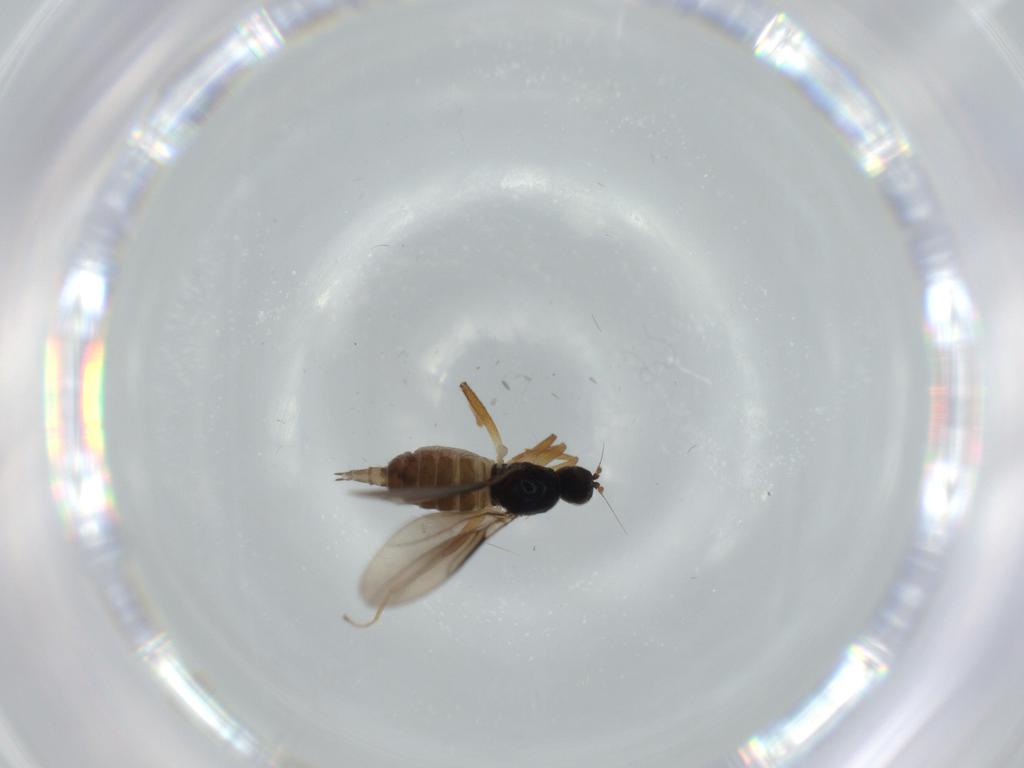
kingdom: Animalia
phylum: Arthropoda
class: Insecta
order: Diptera
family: Hybotidae
